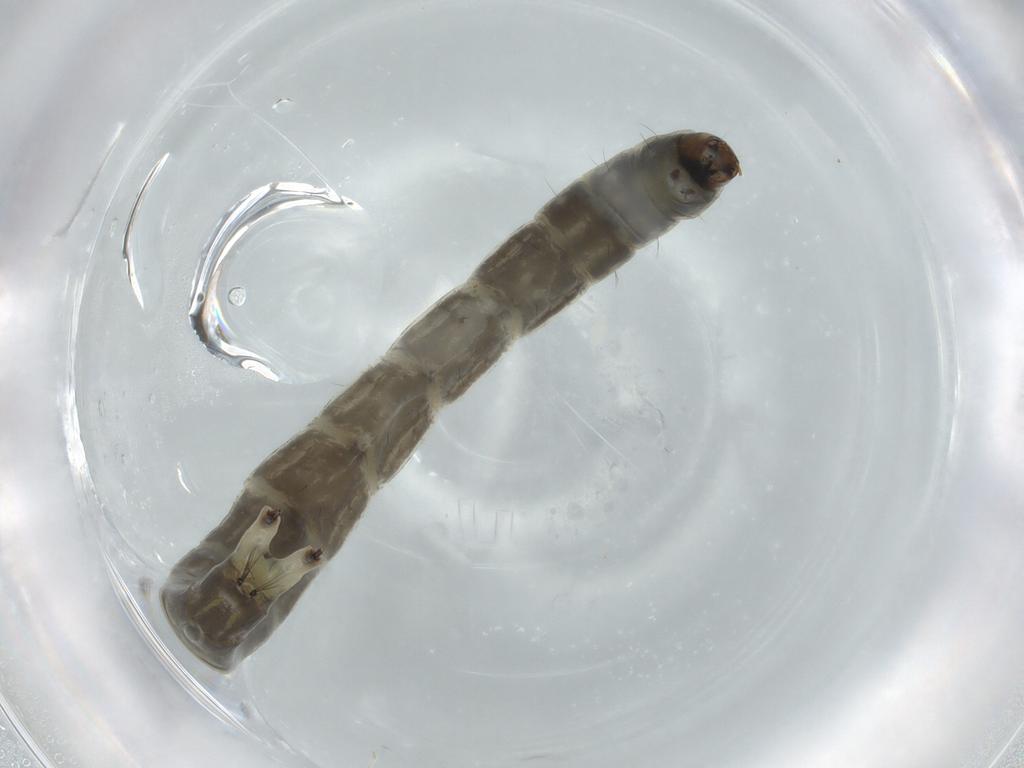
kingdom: Animalia
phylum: Arthropoda
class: Insecta
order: Diptera
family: Chironomidae
